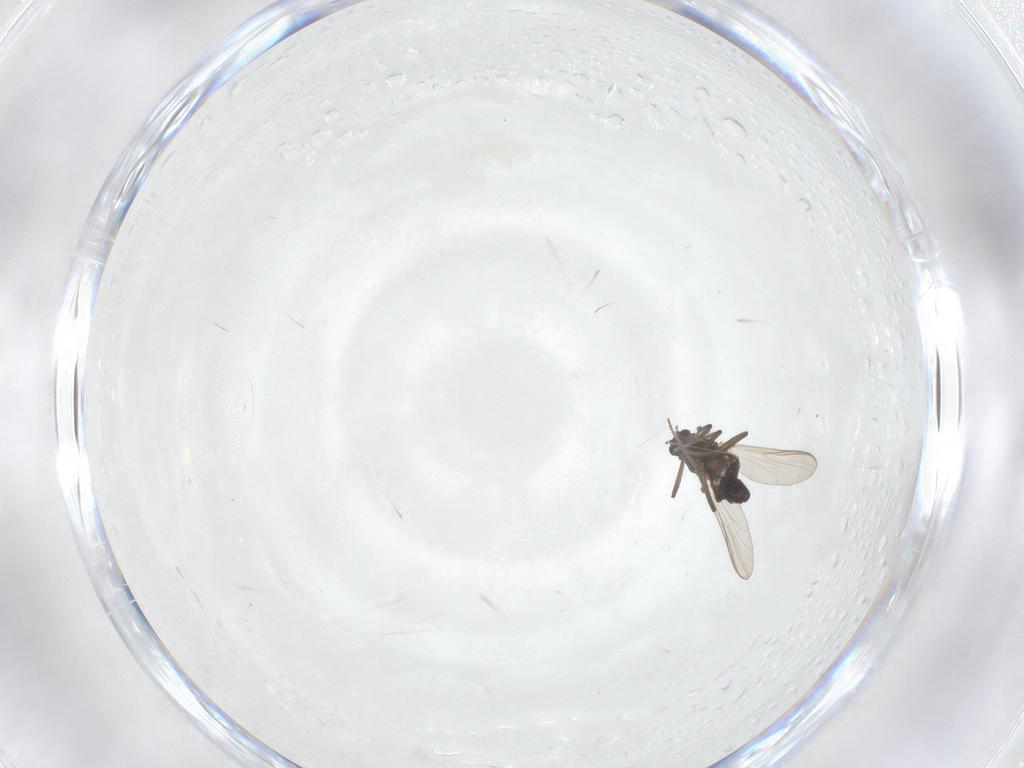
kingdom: Animalia
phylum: Arthropoda
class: Insecta
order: Diptera
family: Chironomidae
